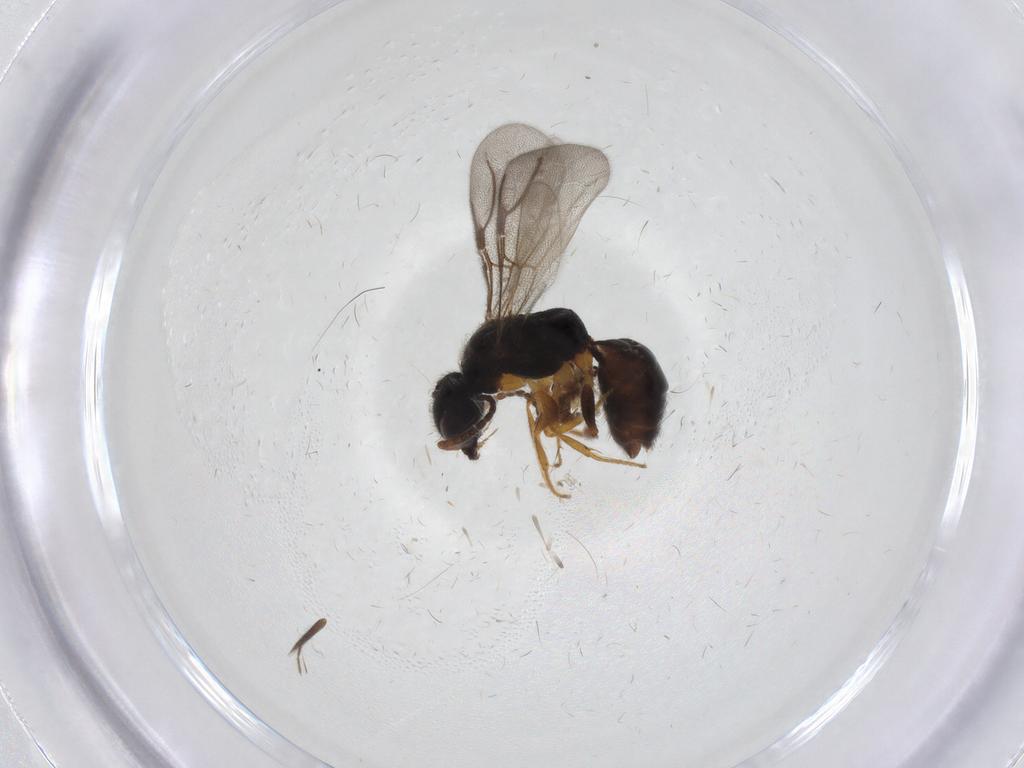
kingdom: Animalia
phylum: Arthropoda
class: Insecta
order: Hymenoptera
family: Bethylidae
